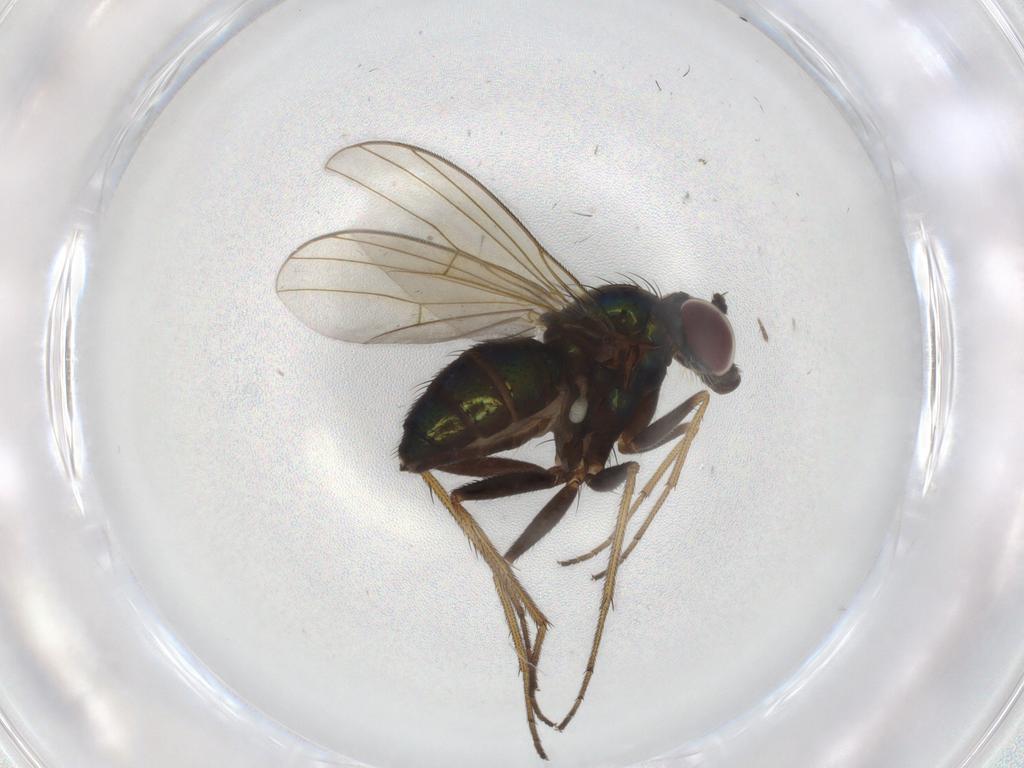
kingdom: Animalia
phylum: Arthropoda
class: Insecta
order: Diptera
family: Dolichopodidae
